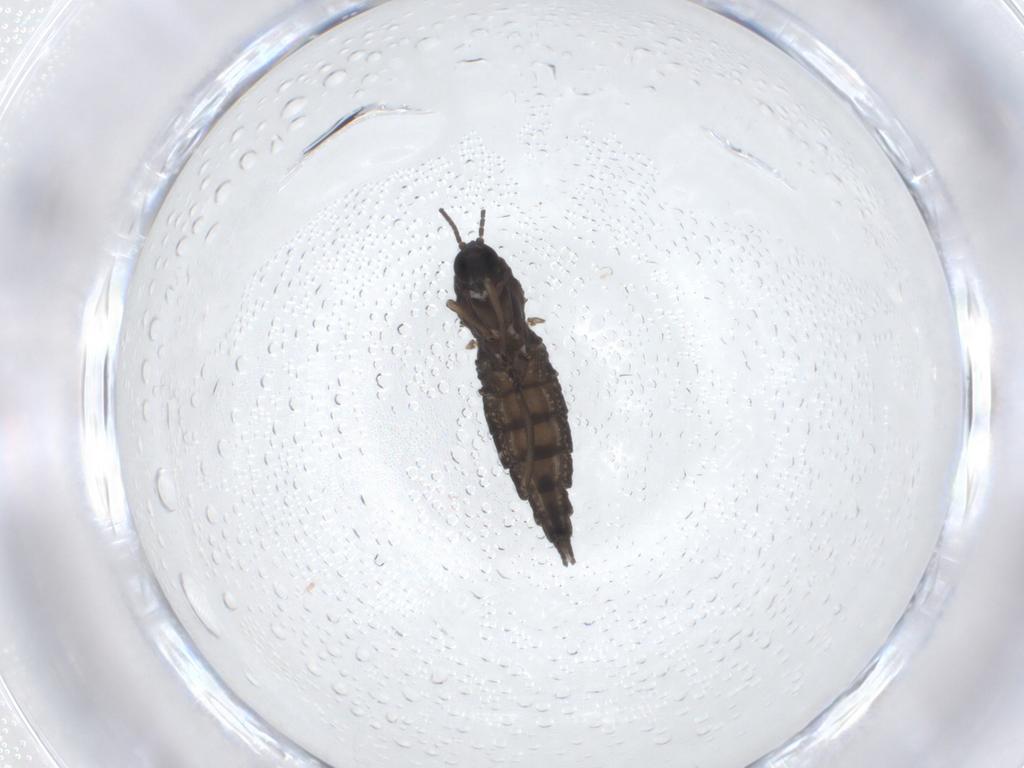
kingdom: Animalia
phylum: Arthropoda
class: Insecta
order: Diptera
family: Sciaridae
